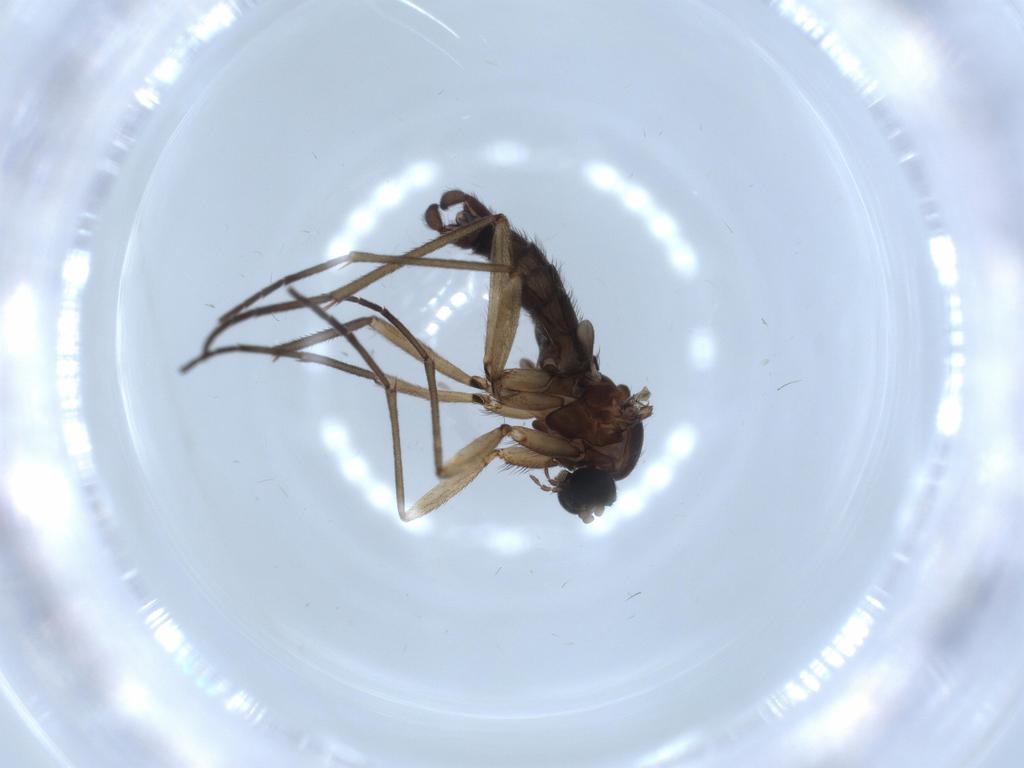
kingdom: Animalia
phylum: Arthropoda
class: Insecta
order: Diptera
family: Sciaridae
